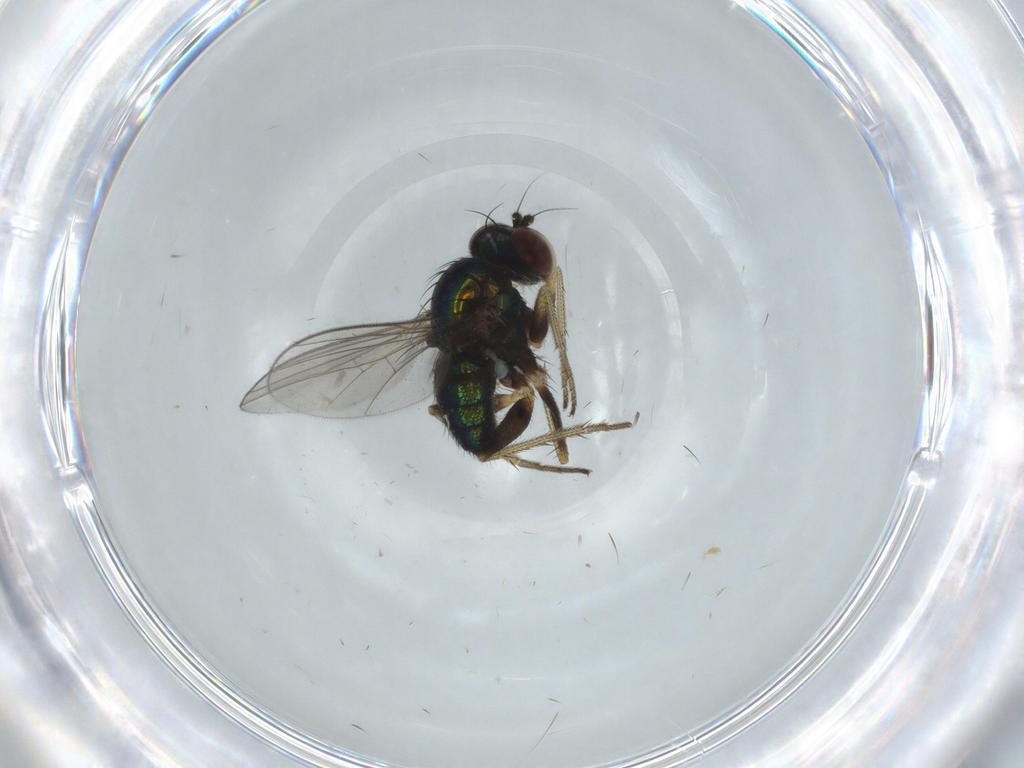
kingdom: Animalia
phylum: Arthropoda
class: Insecta
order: Diptera
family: Dolichopodidae
